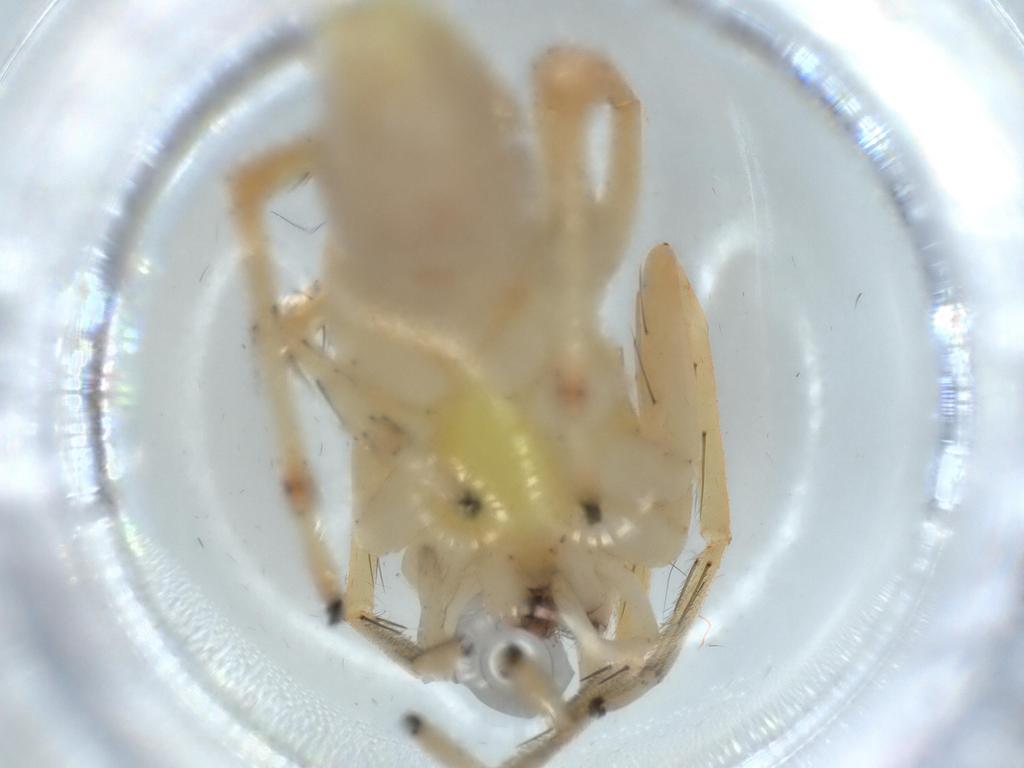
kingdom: Animalia
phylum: Arthropoda
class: Arachnida
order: Araneae
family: Anyphaenidae
